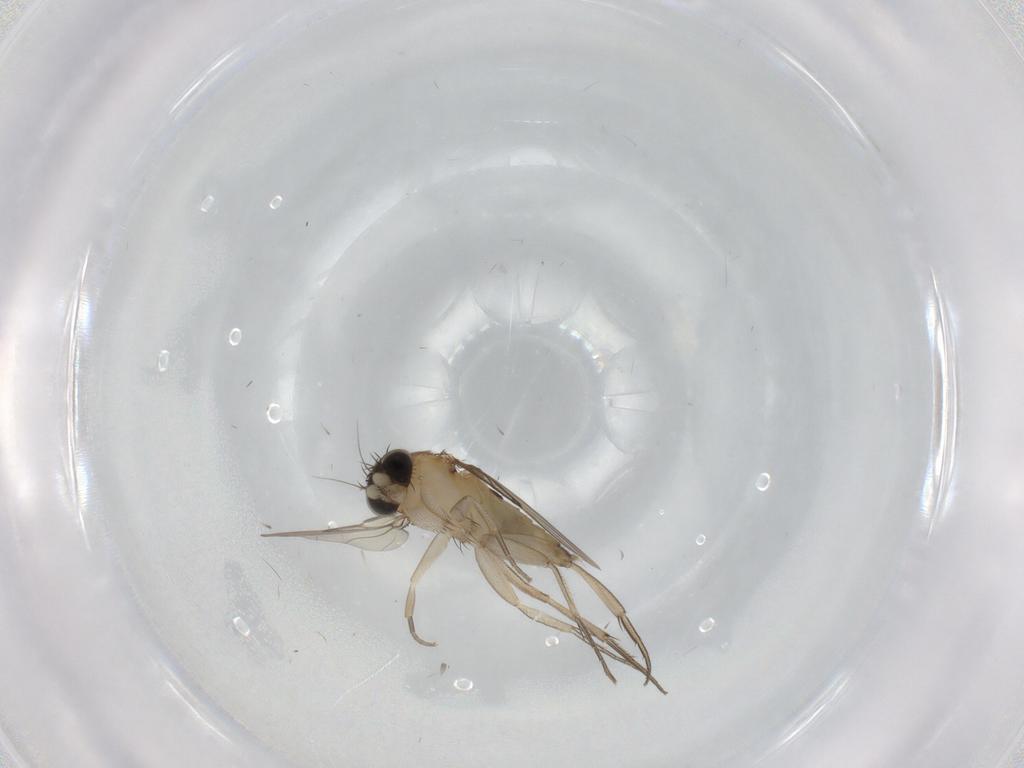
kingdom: Animalia
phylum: Arthropoda
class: Insecta
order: Diptera
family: Phoridae
